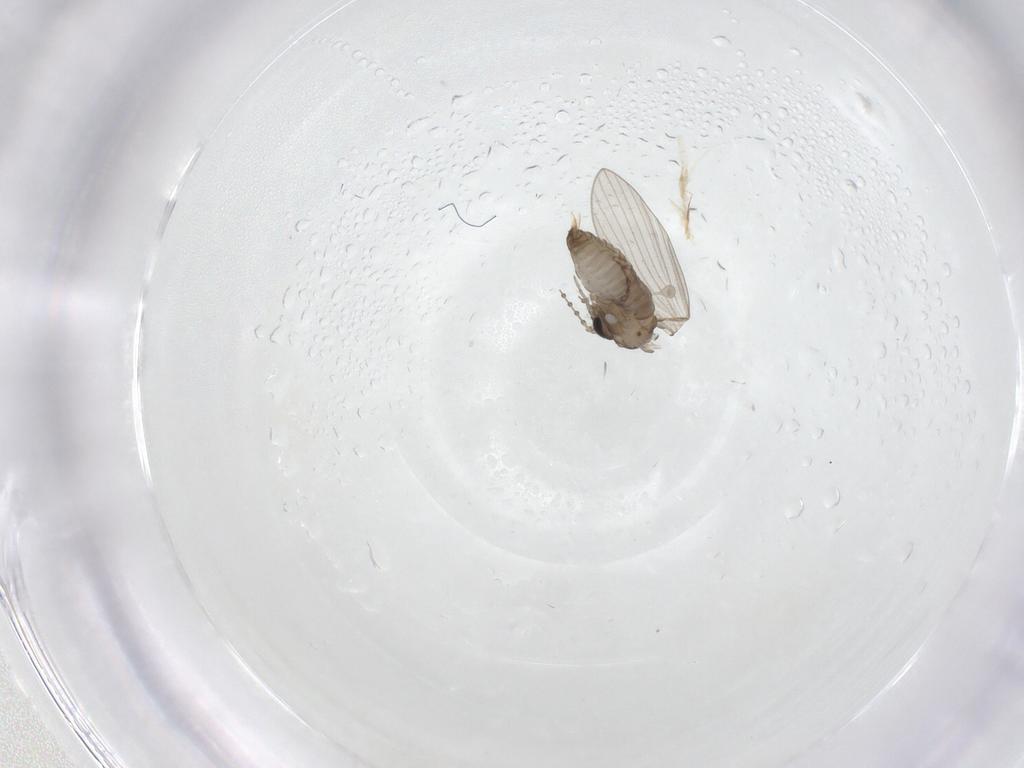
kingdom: Animalia
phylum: Arthropoda
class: Insecta
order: Diptera
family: Chironomidae
